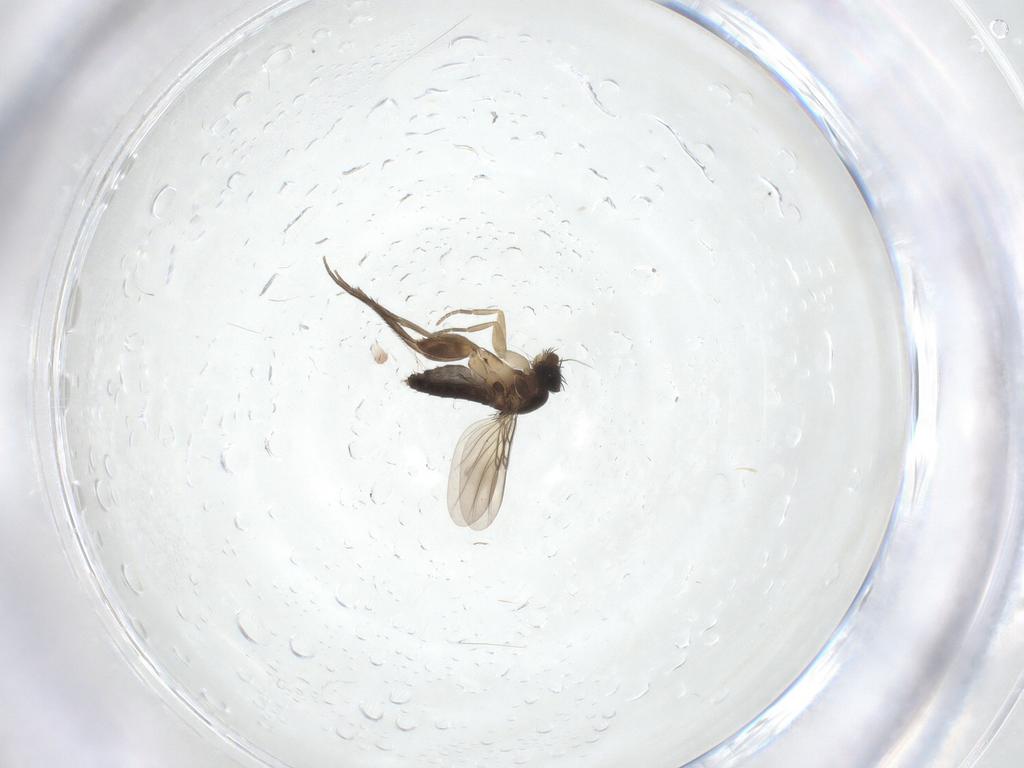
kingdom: Animalia
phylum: Arthropoda
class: Insecta
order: Diptera
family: Phoridae
